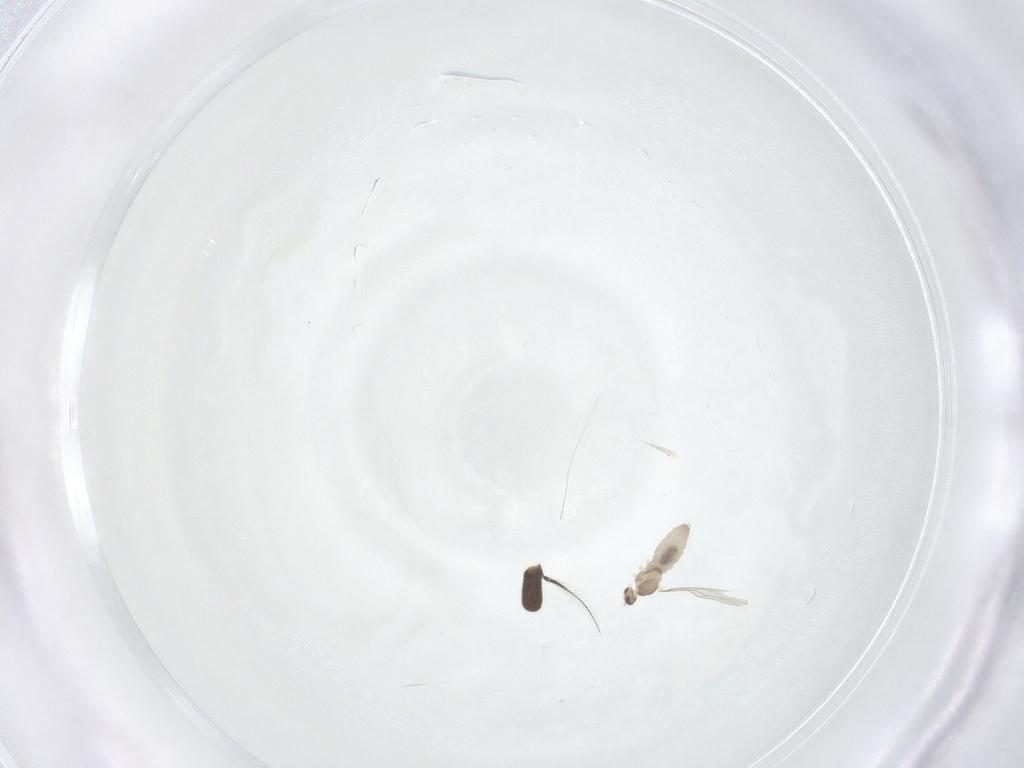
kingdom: Animalia
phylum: Arthropoda
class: Insecta
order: Diptera
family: Cecidomyiidae
